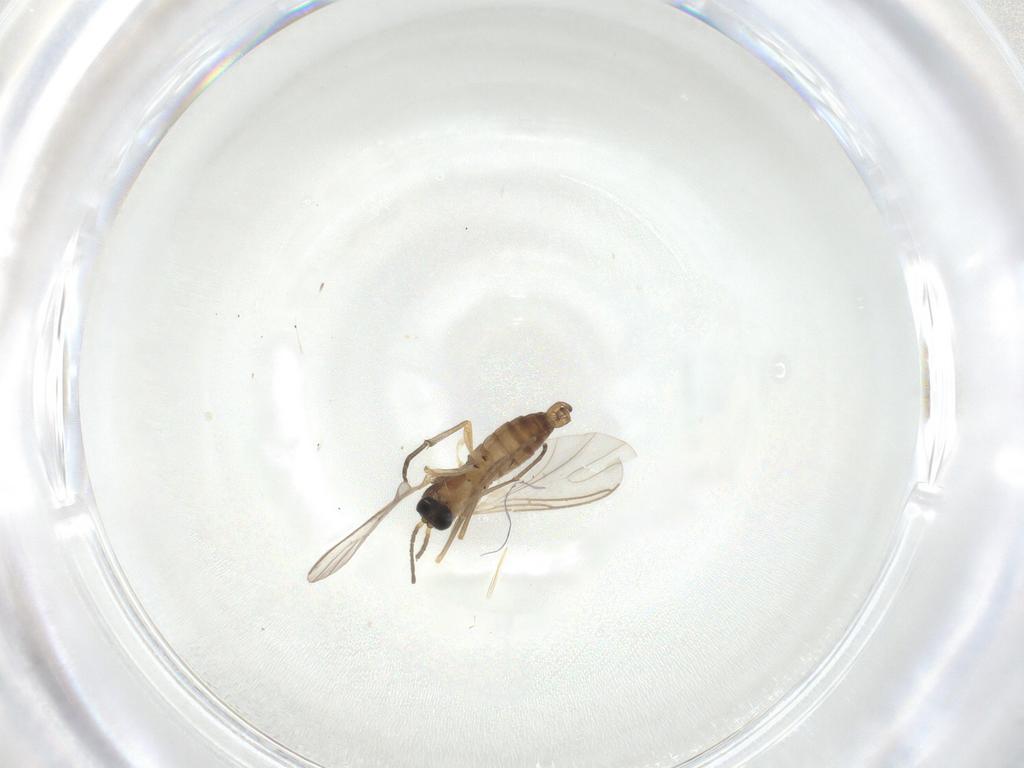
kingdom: Animalia
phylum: Arthropoda
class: Insecta
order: Diptera
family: Sciaridae
